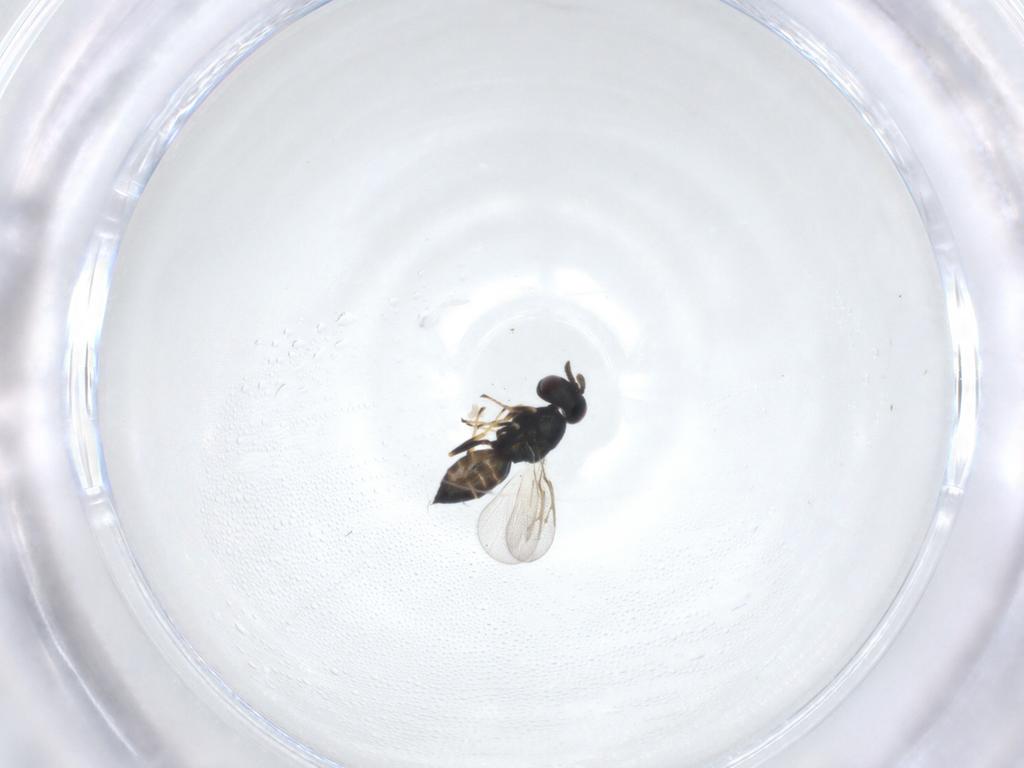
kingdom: Animalia
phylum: Arthropoda
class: Insecta
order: Hymenoptera
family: Pteromalidae
